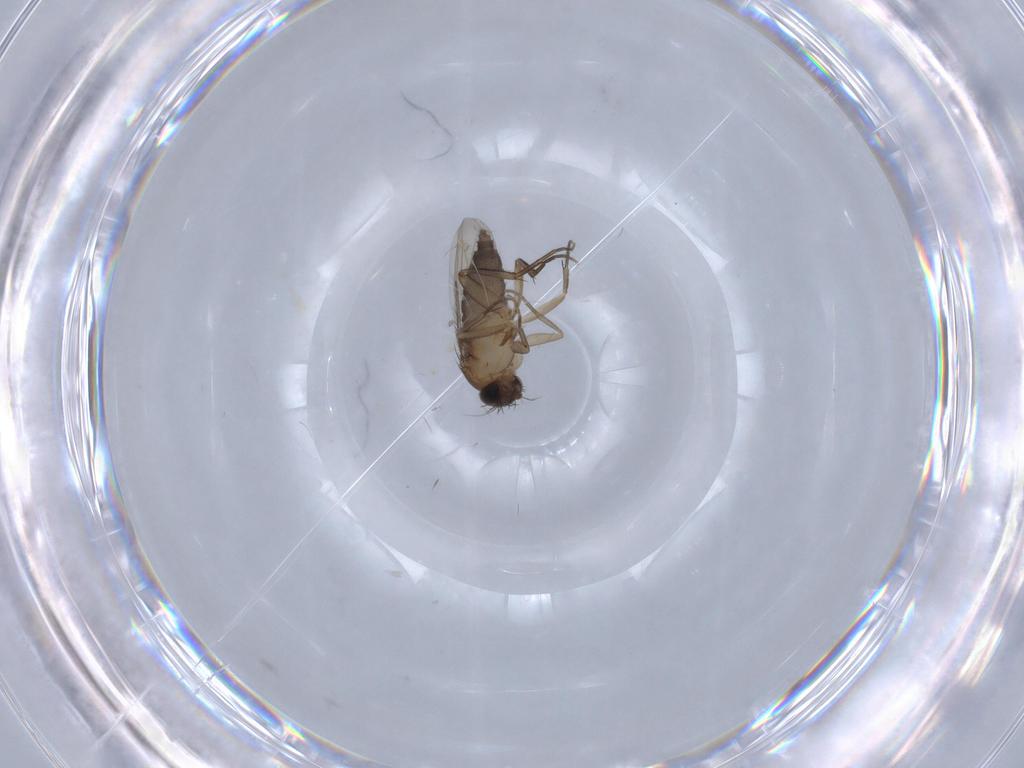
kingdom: Animalia
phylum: Arthropoda
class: Insecta
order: Diptera
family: Phoridae
